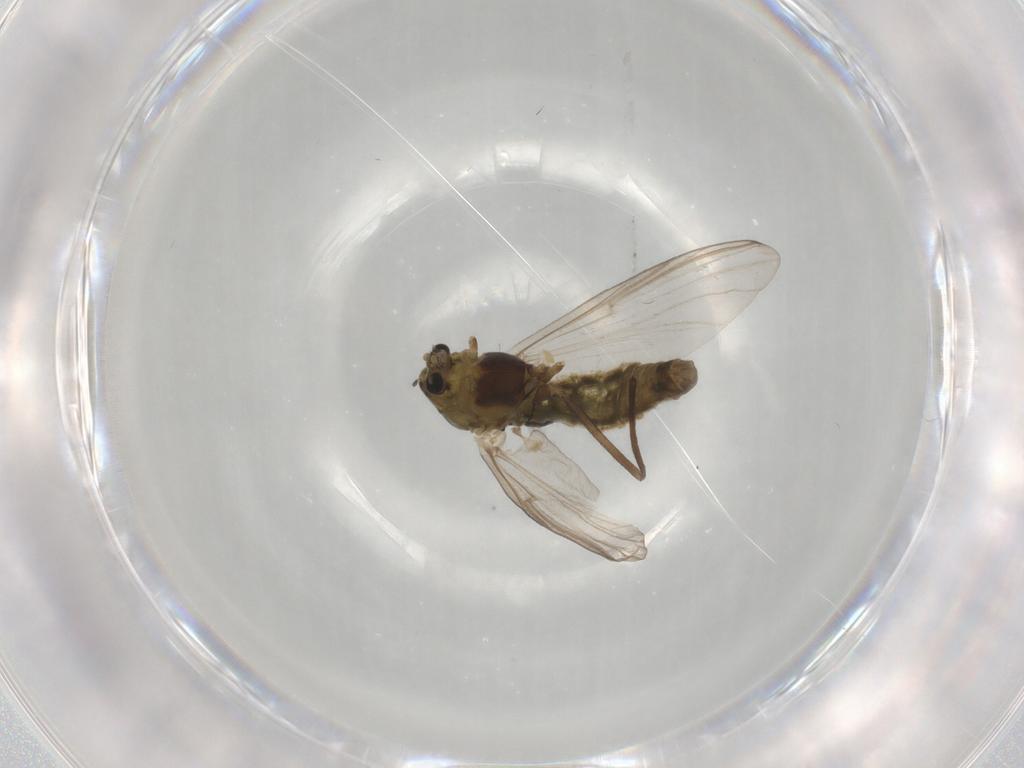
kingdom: Animalia
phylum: Arthropoda
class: Insecta
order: Diptera
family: Chironomidae
